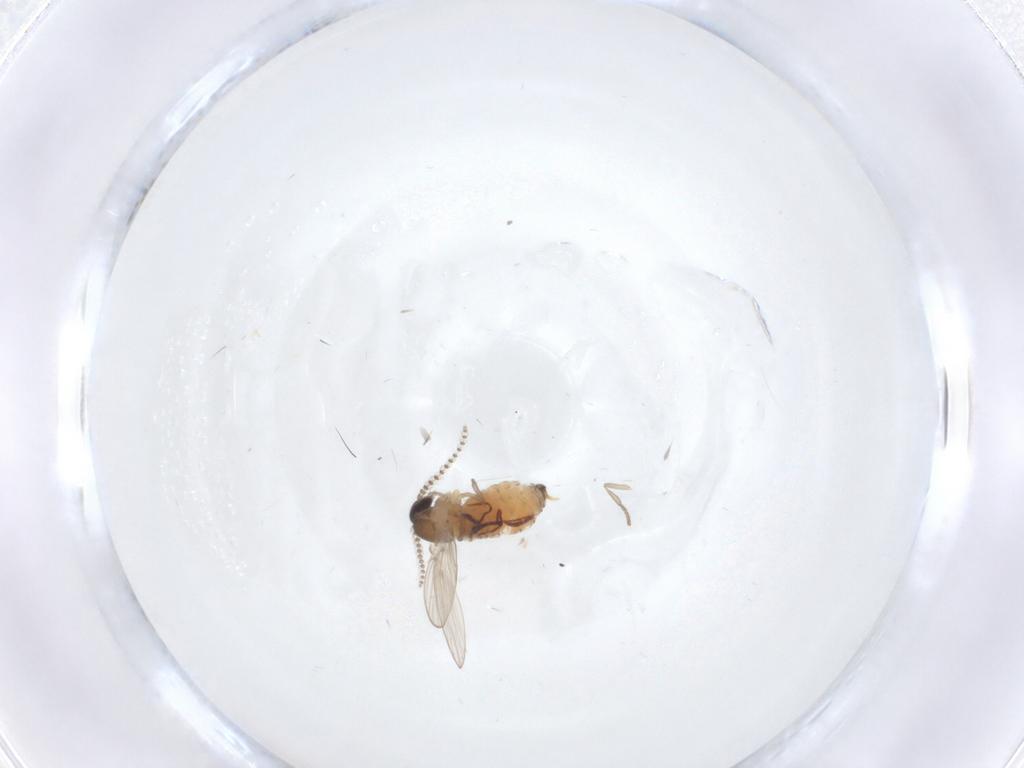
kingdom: Animalia
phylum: Arthropoda
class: Insecta
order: Diptera
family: Psychodidae
